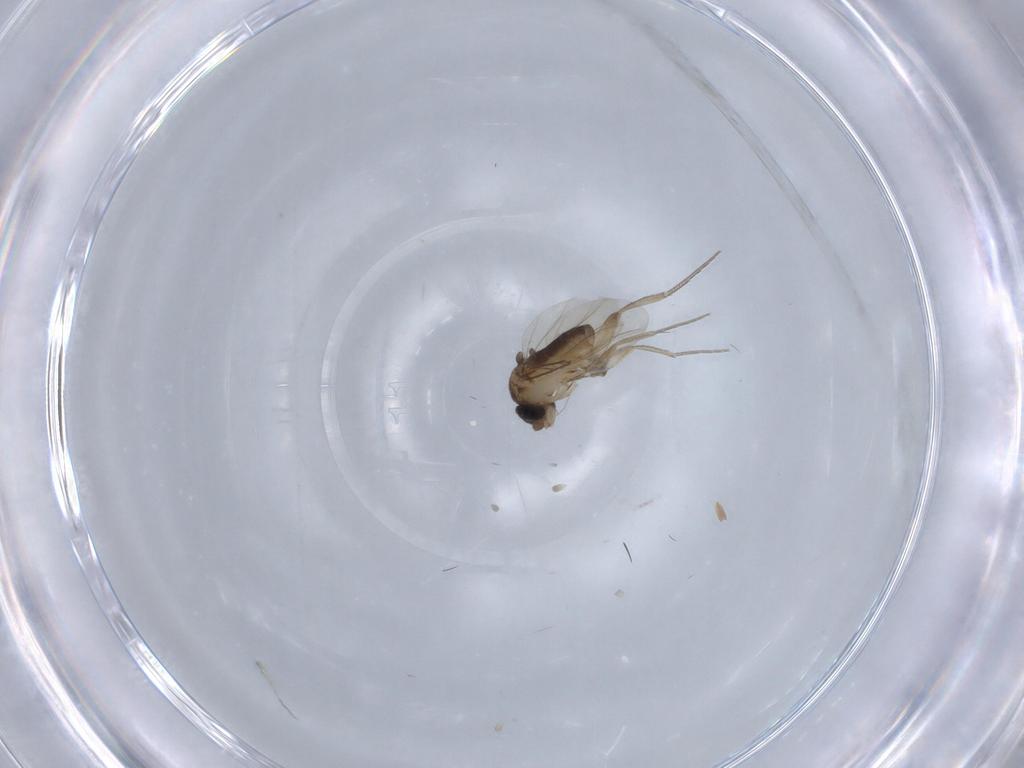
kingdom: Animalia
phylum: Arthropoda
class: Insecta
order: Diptera
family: Phoridae
